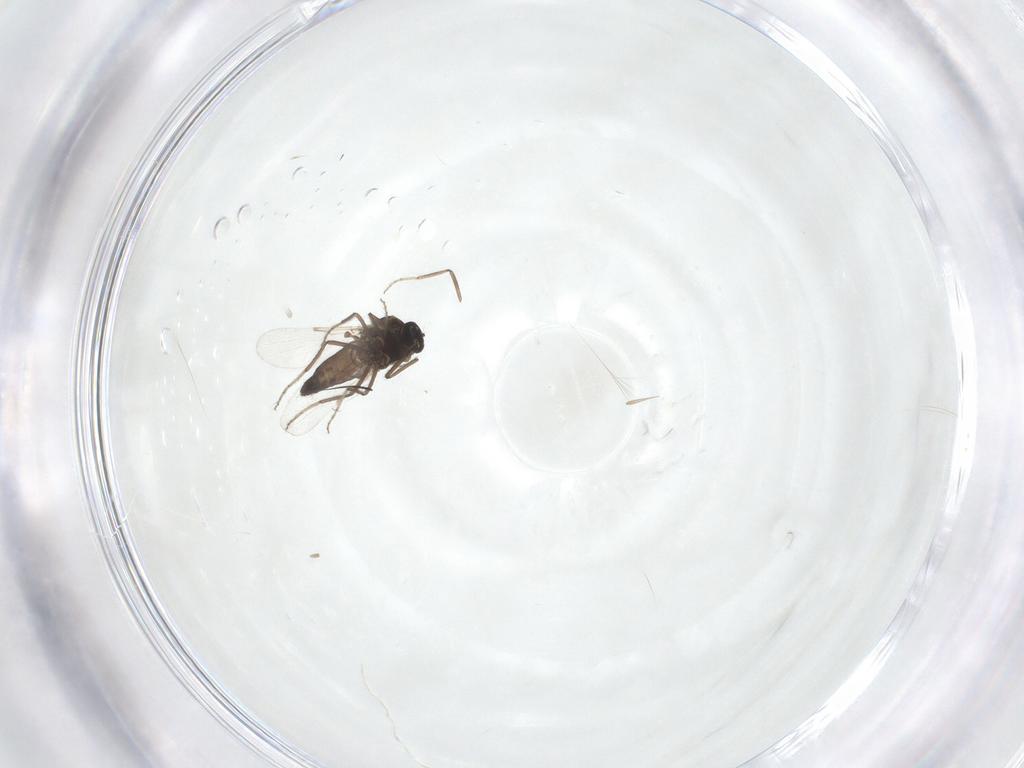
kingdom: Animalia
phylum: Arthropoda
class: Insecta
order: Diptera
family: Ceratopogonidae
